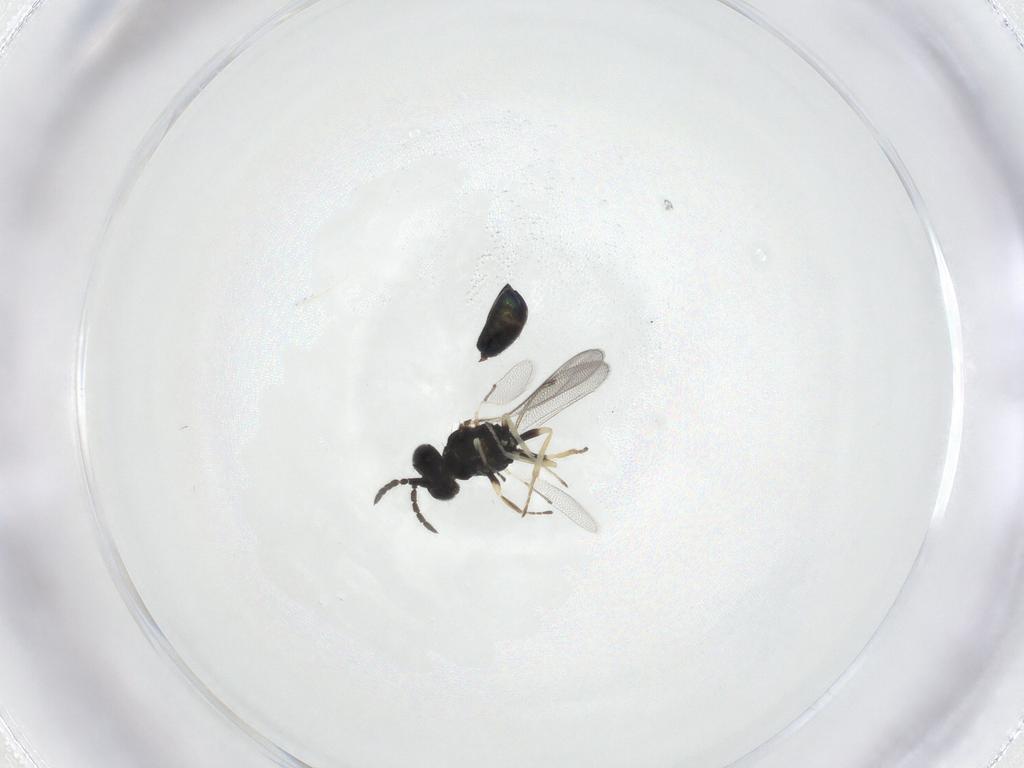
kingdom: Animalia
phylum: Arthropoda
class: Insecta
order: Hymenoptera
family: Eulophidae
